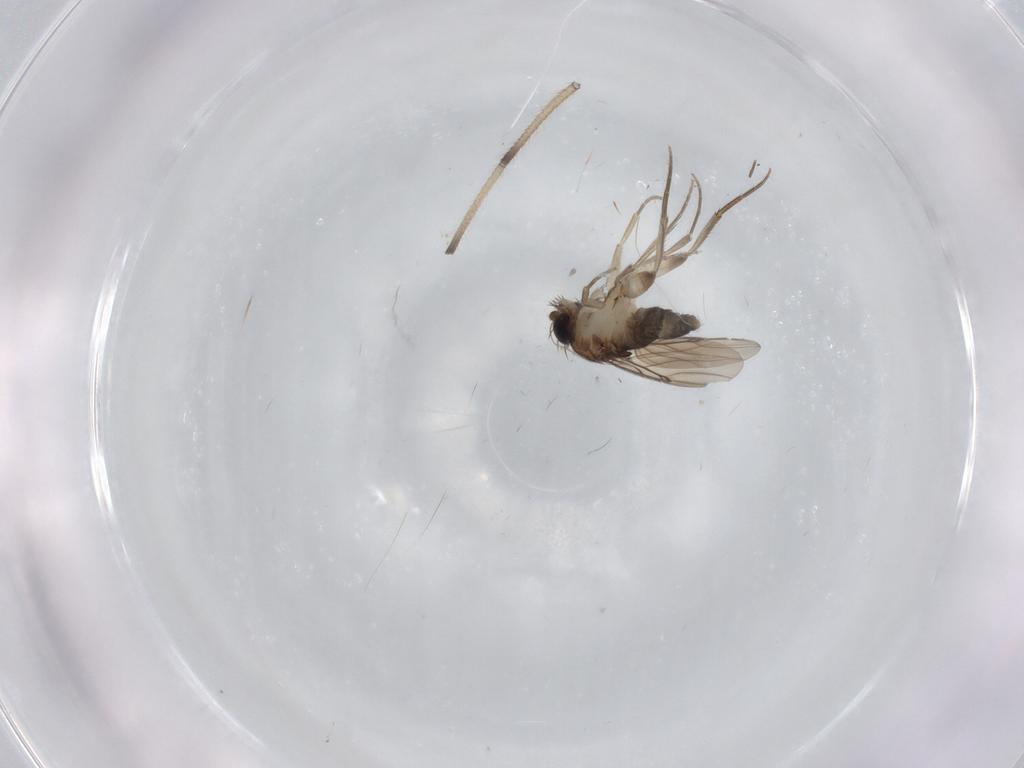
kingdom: Animalia
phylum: Arthropoda
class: Insecta
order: Diptera
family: Phoridae
